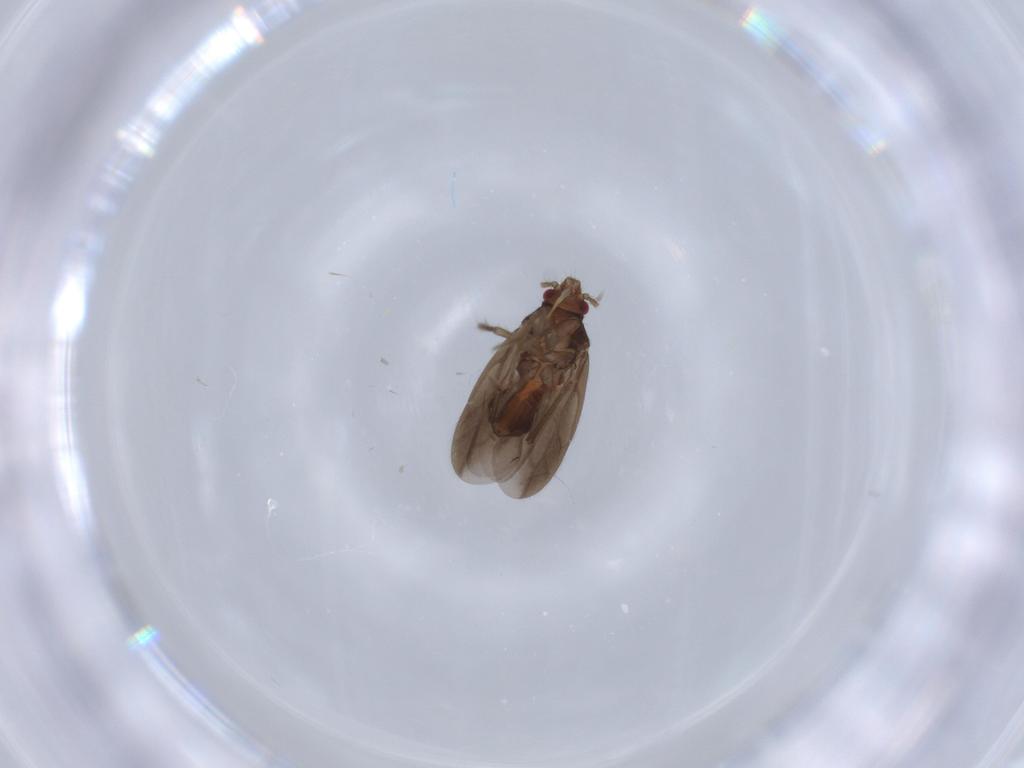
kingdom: Animalia
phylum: Arthropoda
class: Insecta
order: Hemiptera
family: Ceratocombidae
